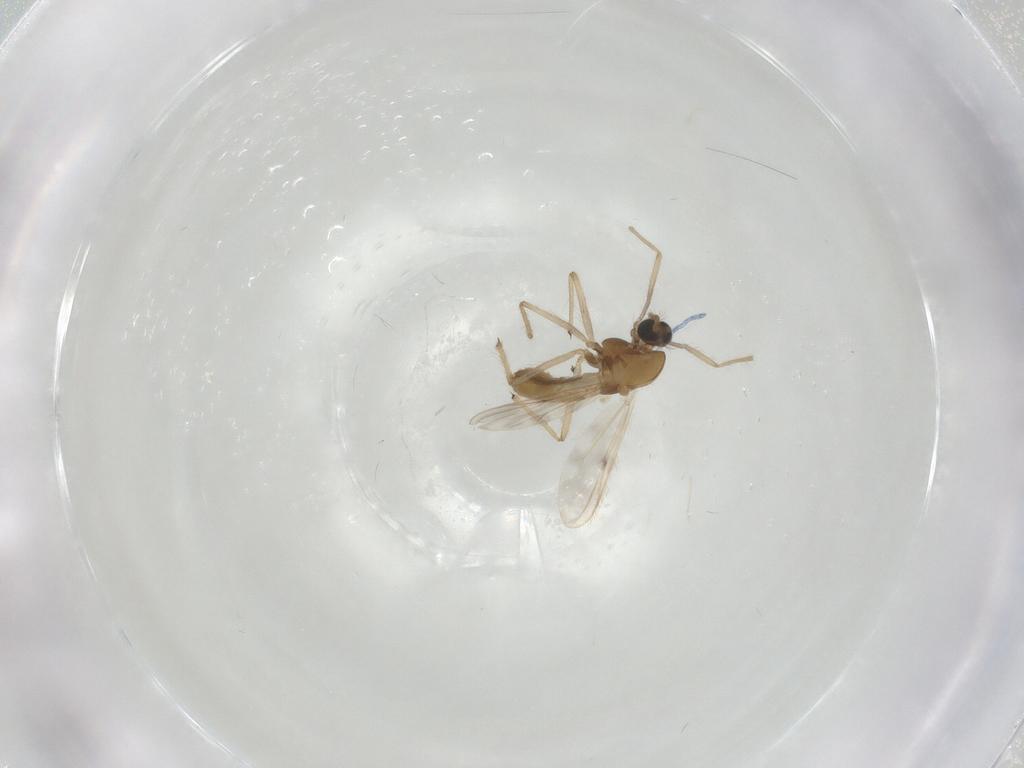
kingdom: Animalia
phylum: Arthropoda
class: Insecta
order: Diptera
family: Chironomidae
